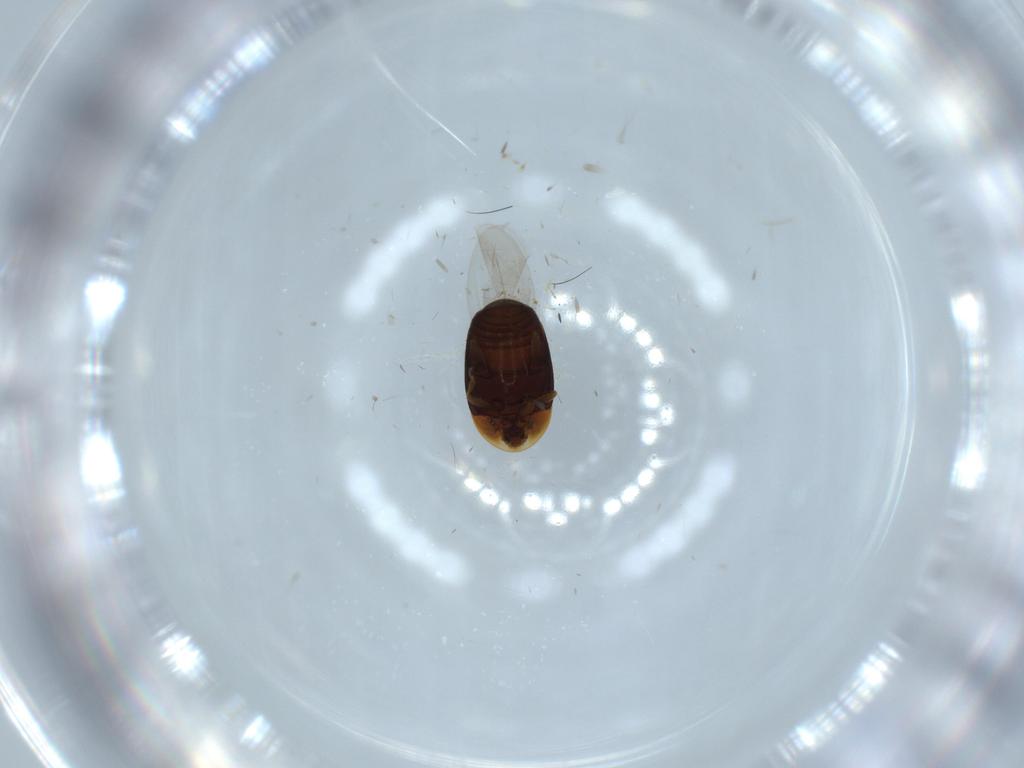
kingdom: Animalia
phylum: Arthropoda
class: Insecta
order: Coleoptera
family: Corylophidae
